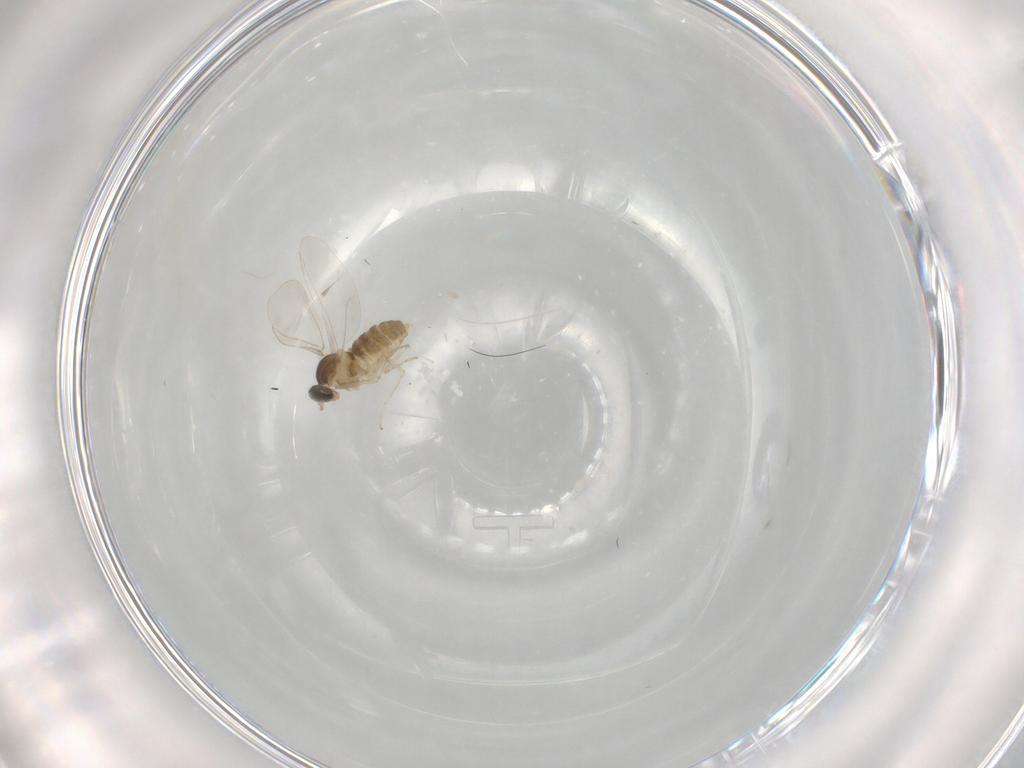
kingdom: Animalia
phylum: Arthropoda
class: Insecta
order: Diptera
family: Cecidomyiidae
